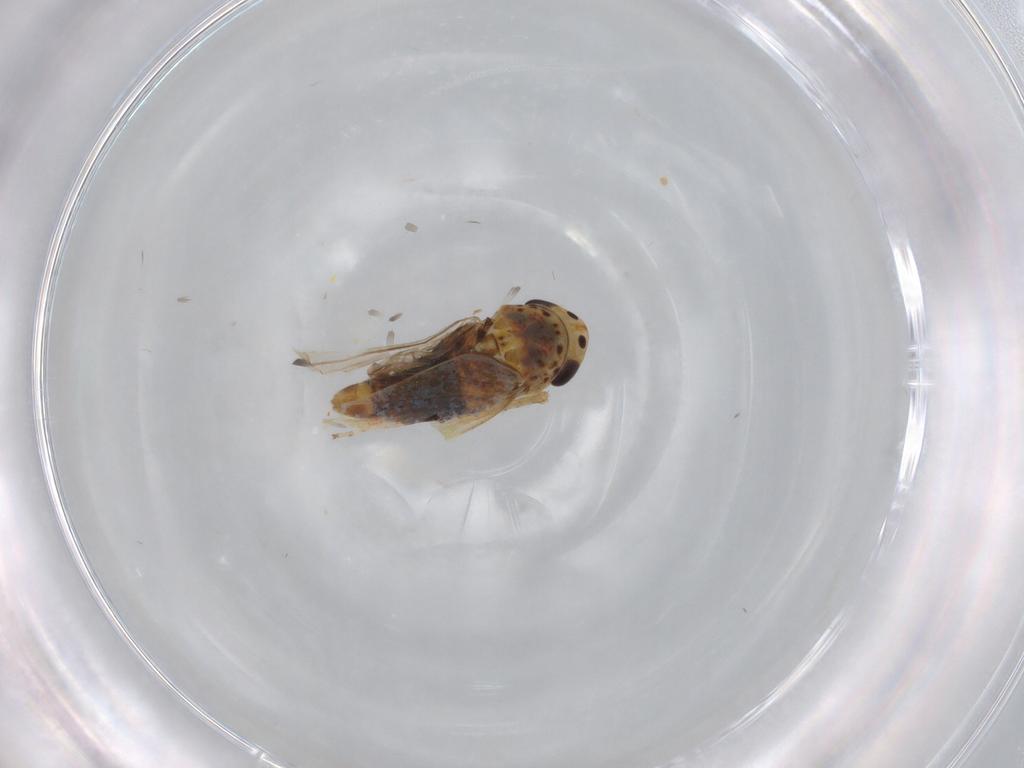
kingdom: Animalia
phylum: Arthropoda
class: Insecta
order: Hemiptera
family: Cicadellidae
